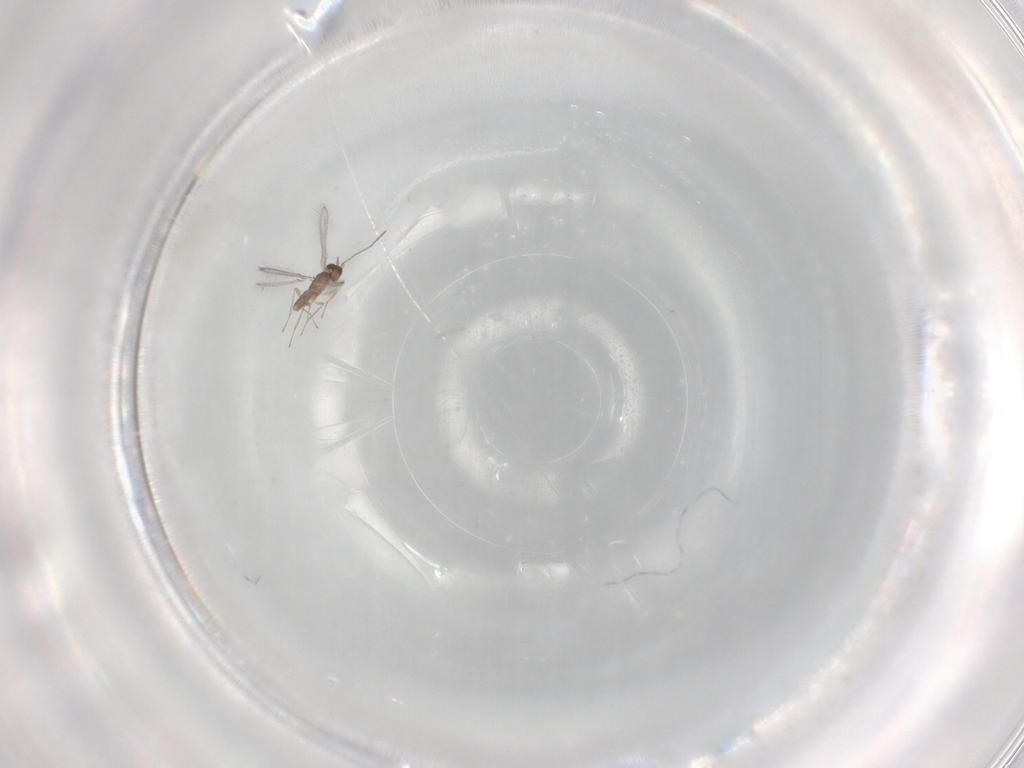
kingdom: Animalia
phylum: Arthropoda
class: Insecta
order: Hymenoptera
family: Mymaridae
